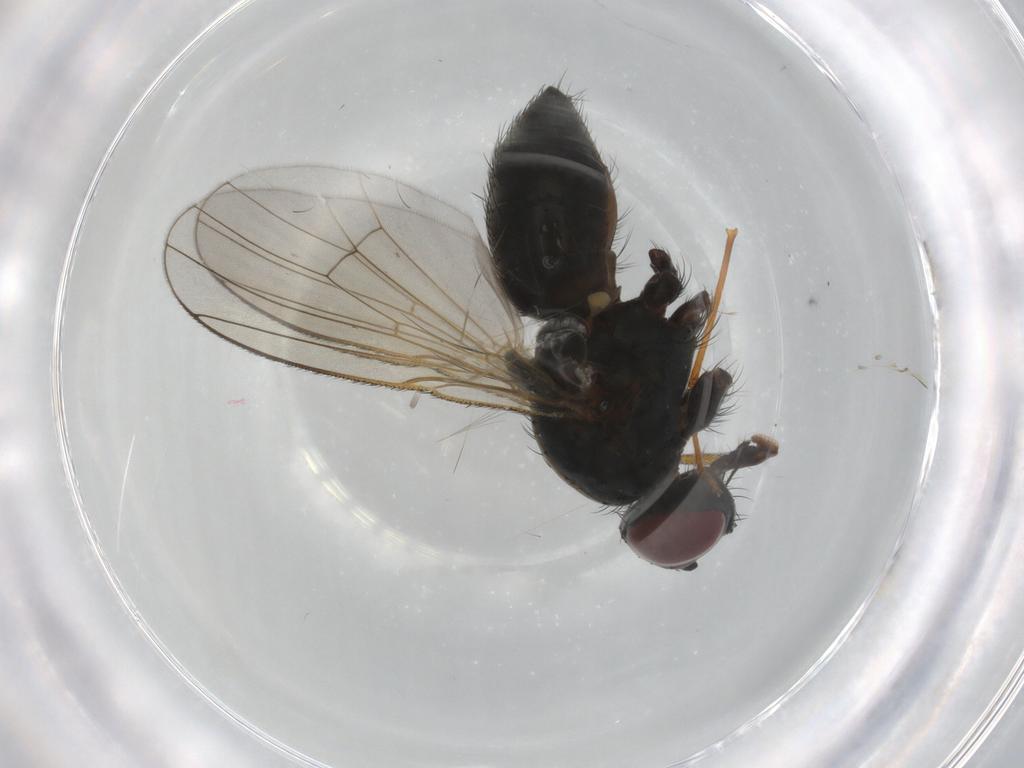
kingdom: Animalia
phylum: Arthropoda
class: Insecta
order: Diptera
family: Muscidae
